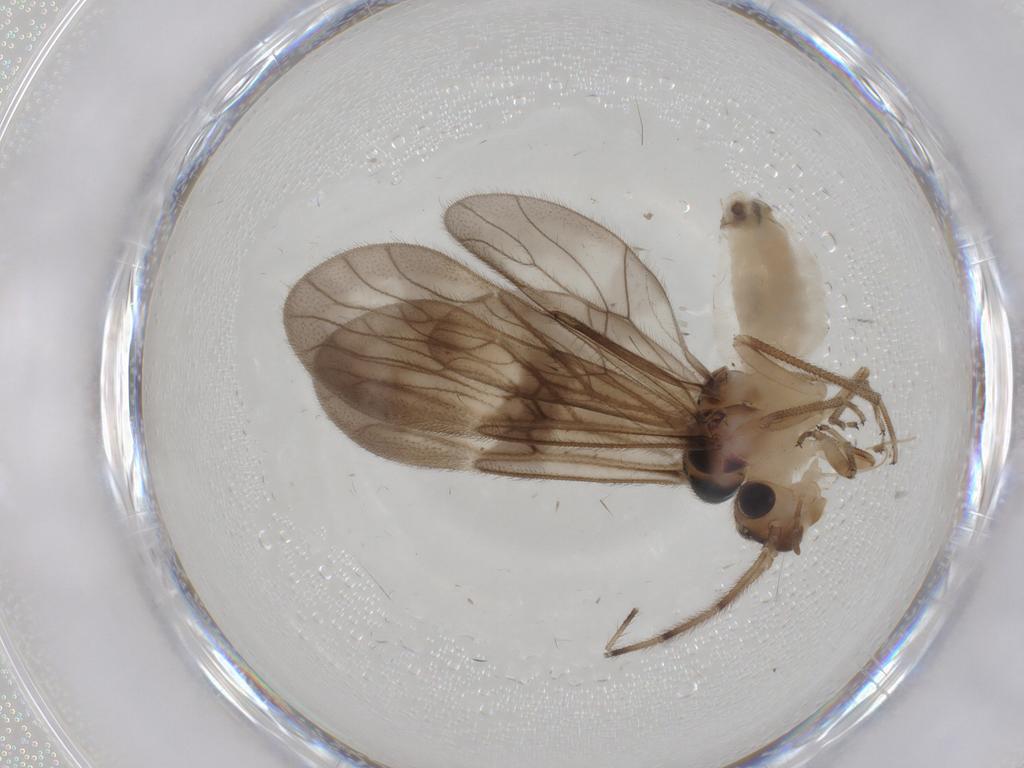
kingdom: Animalia
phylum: Arthropoda
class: Insecta
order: Psocodea
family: Amphipsocidae
